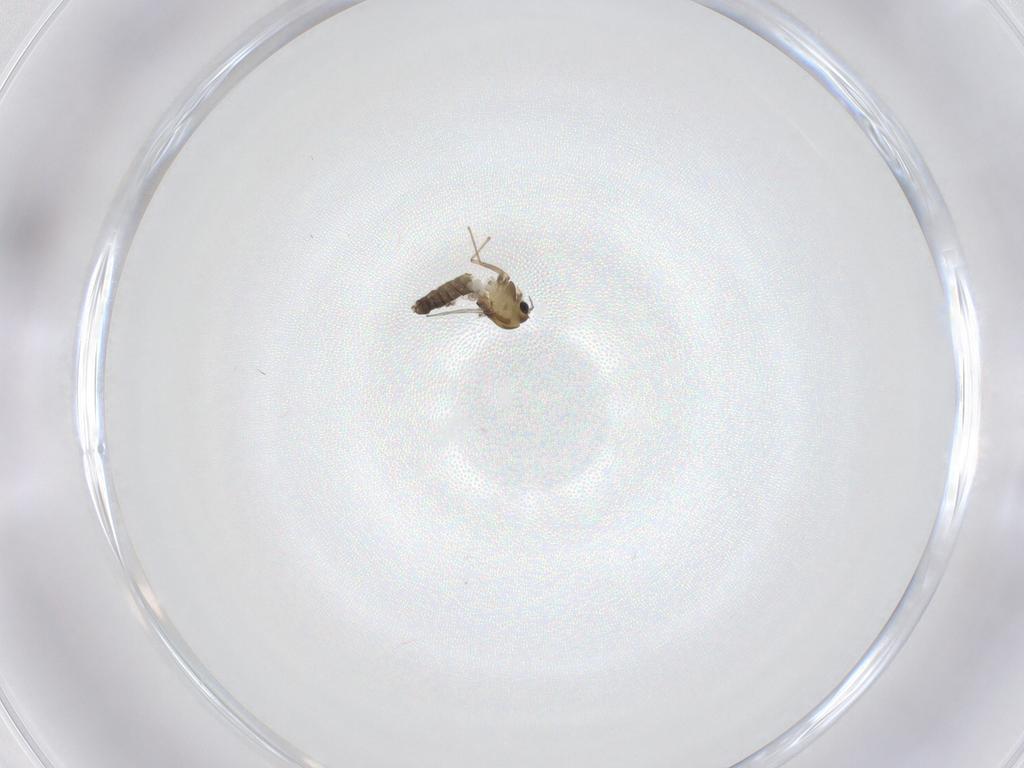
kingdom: Animalia
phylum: Arthropoda
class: Insecta
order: Diptera
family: Chironomidae
